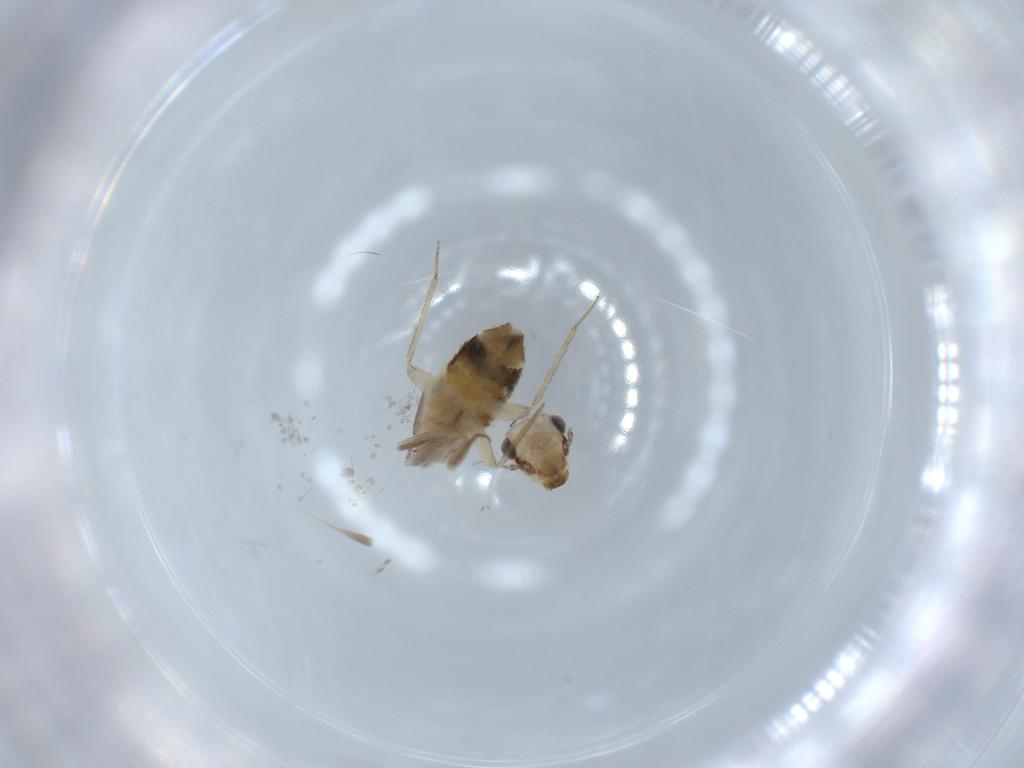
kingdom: Animalia
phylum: Arthropoda
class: Insecta
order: Psocodea
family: Lepidopsocidae
